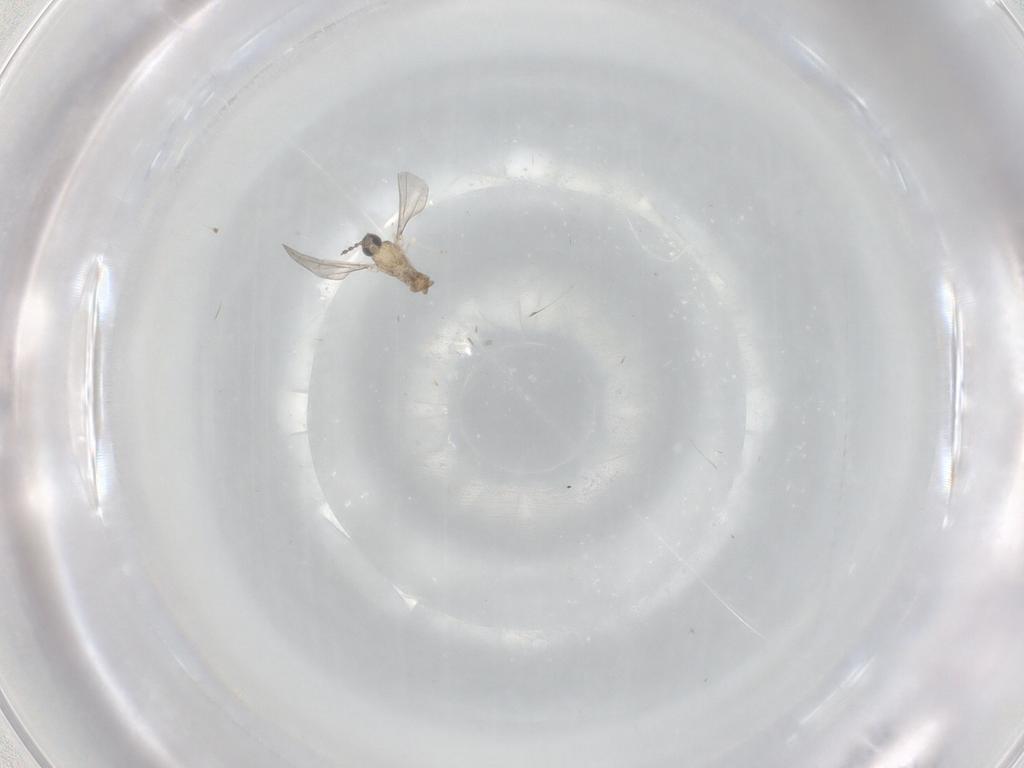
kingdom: Animalia
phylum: Arthropoda
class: Insecta
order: Diptera
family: Cecidomyiidae
